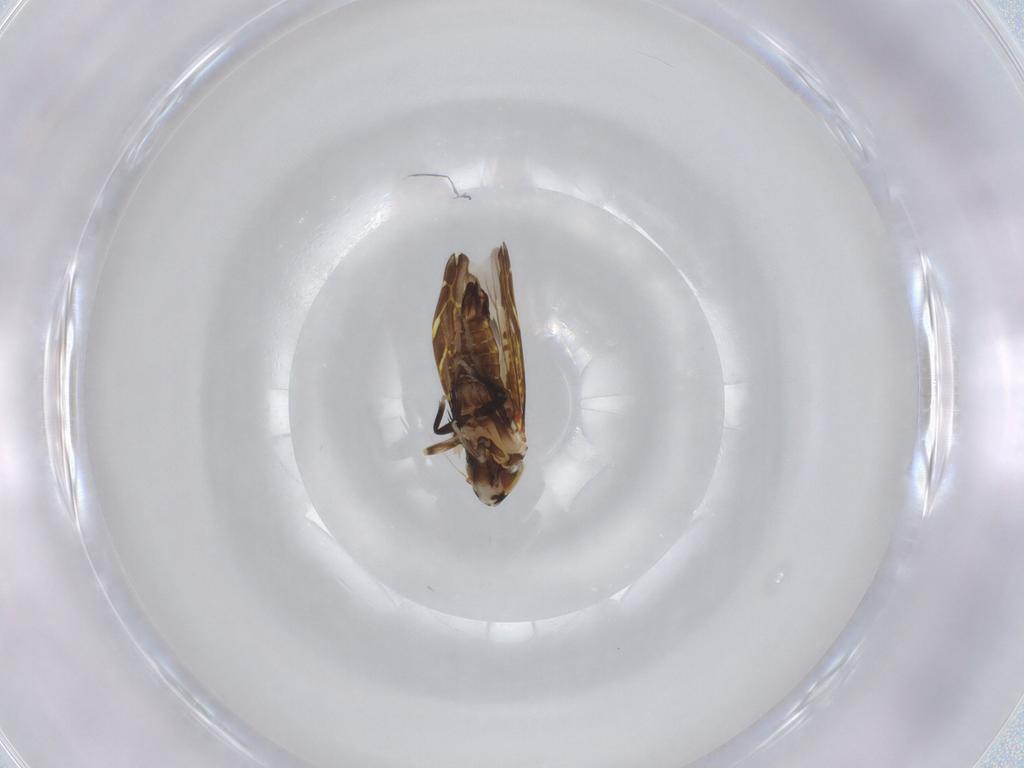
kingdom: Animalia
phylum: Arthropoda
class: Insecta
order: Hemiptera
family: Cicadellidae
